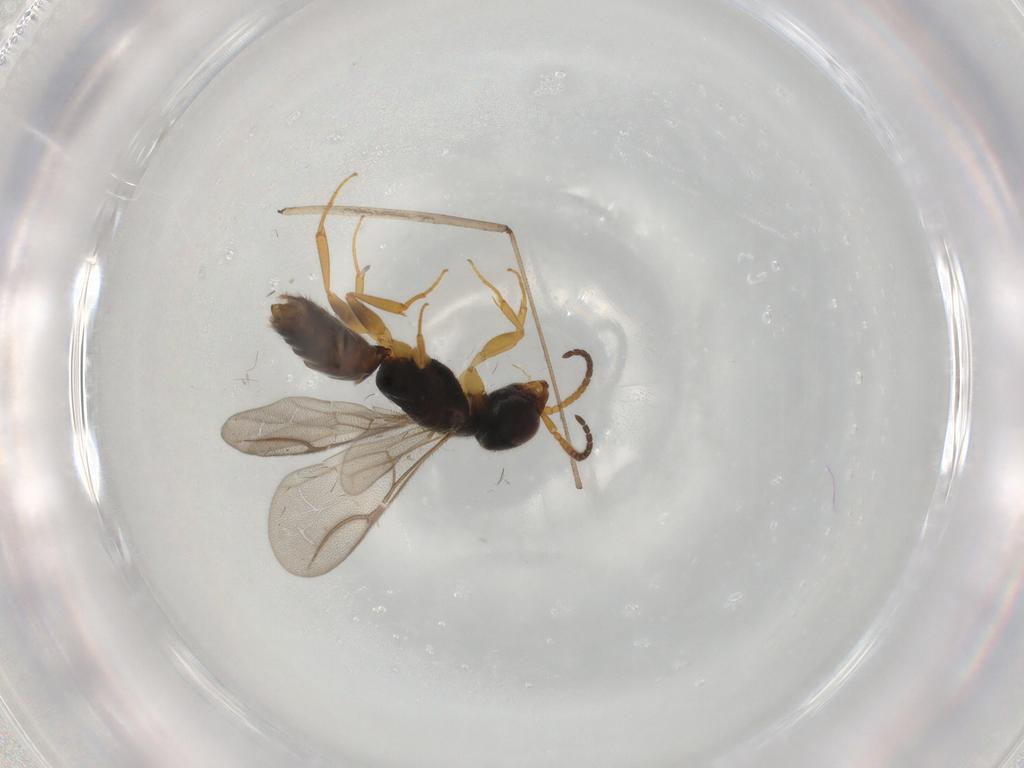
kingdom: Animalia
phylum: Arthropoda
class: Insecta
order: Hymenoptera
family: Bethylidae
